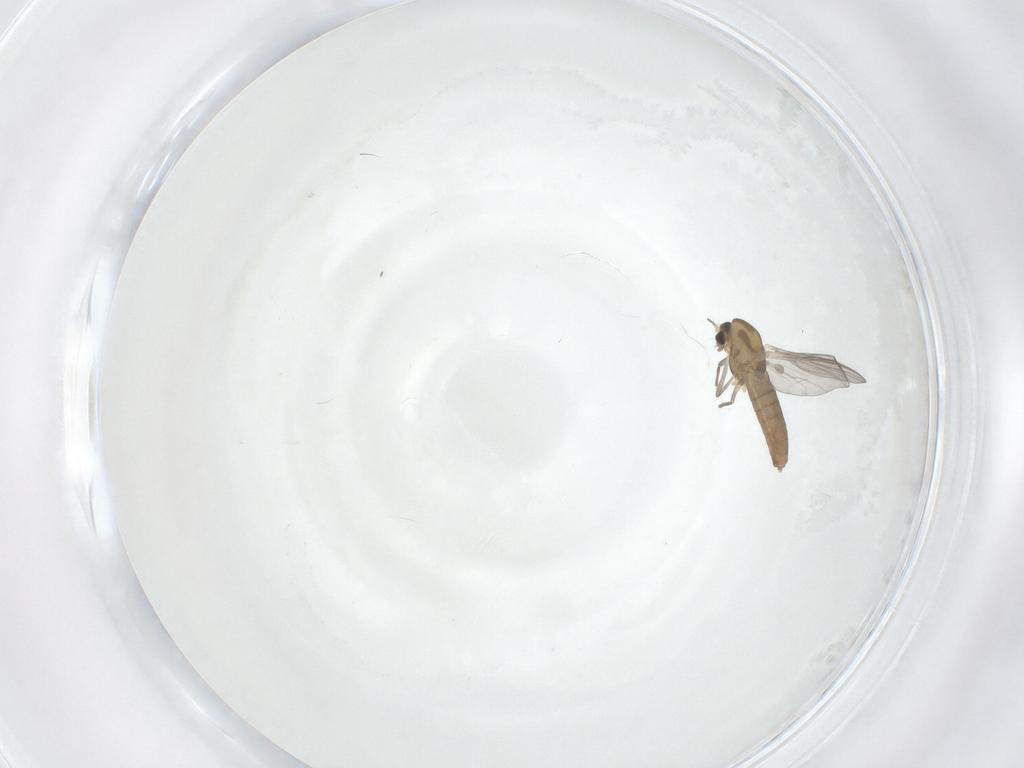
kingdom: Animalia
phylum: Arthropoda
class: Insecta
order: Diptera
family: Chironomidae
